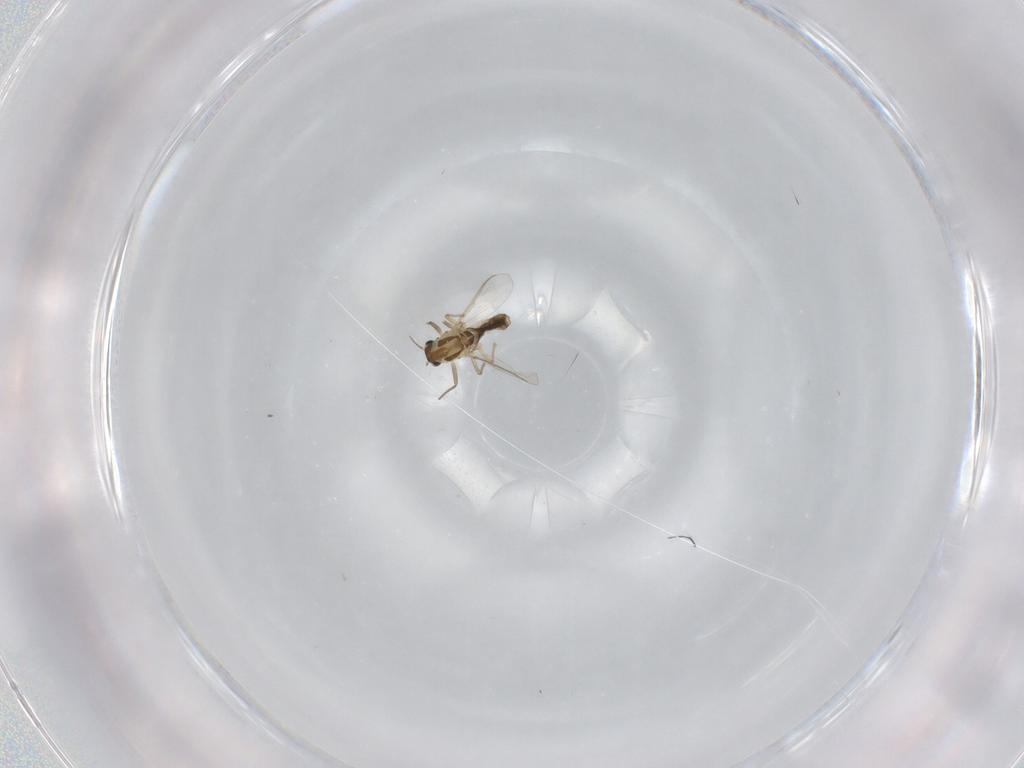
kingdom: Animalia
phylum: Arthropoda
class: Insecta
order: Diptera
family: Chironomidae
